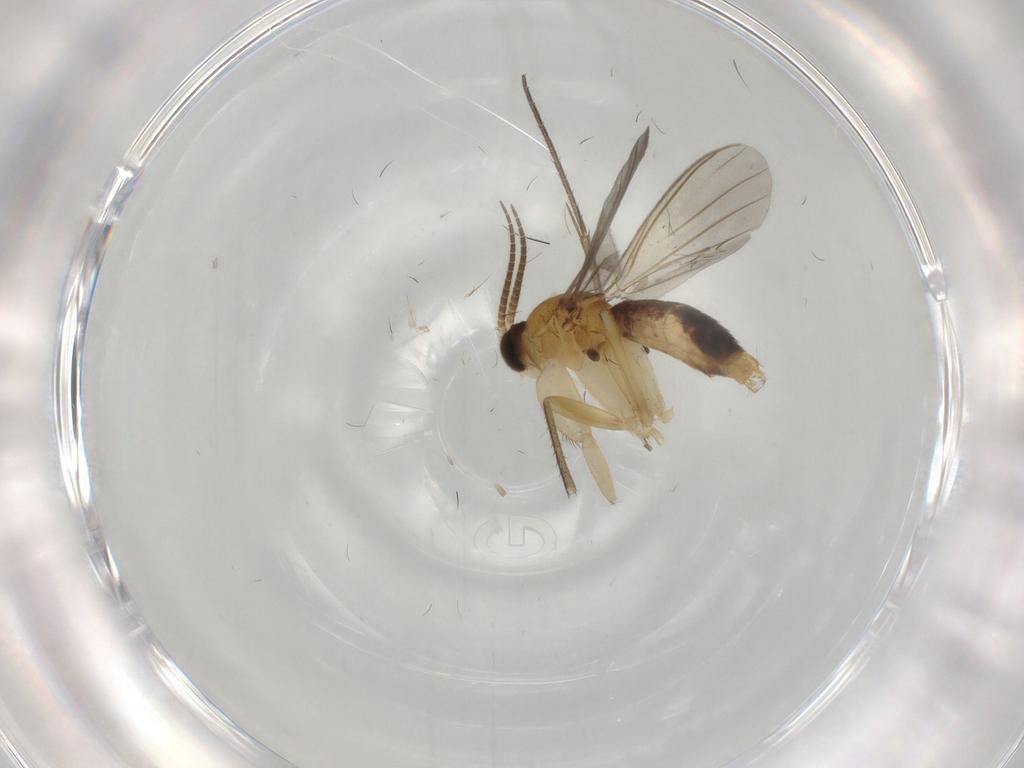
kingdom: Animalia
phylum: Arthropoda
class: Insecta
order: Diptera
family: Mycetophilidae
